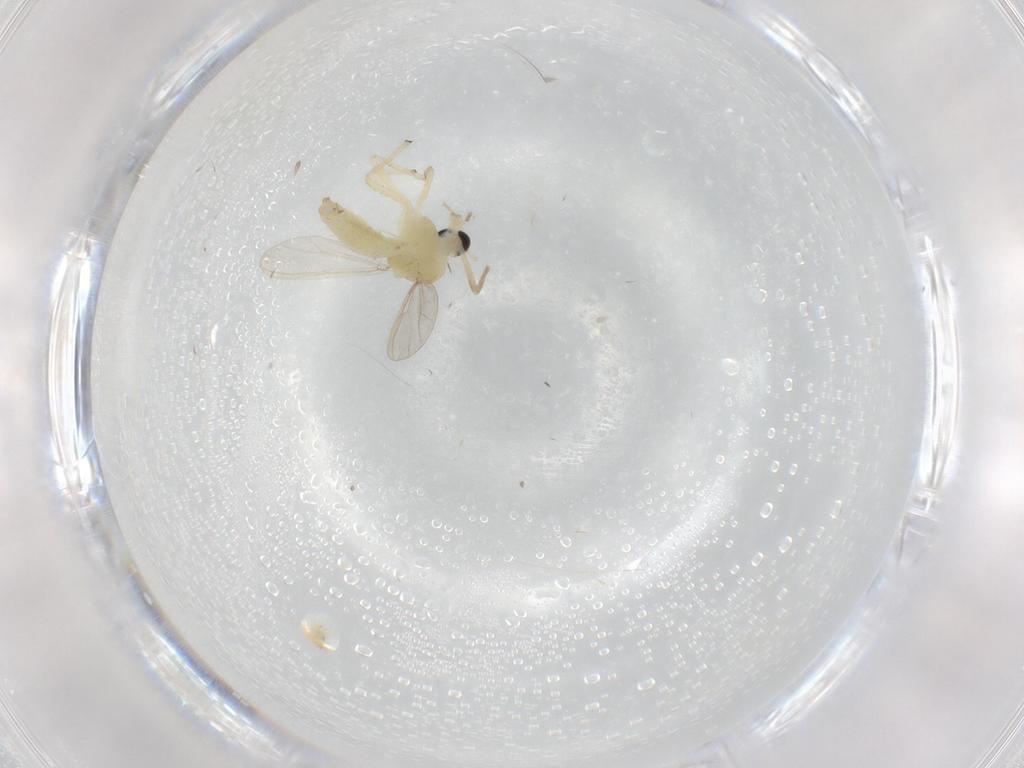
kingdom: Animalia
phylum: Arthropoda
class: Insecta
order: Diptera
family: Chironomidae
